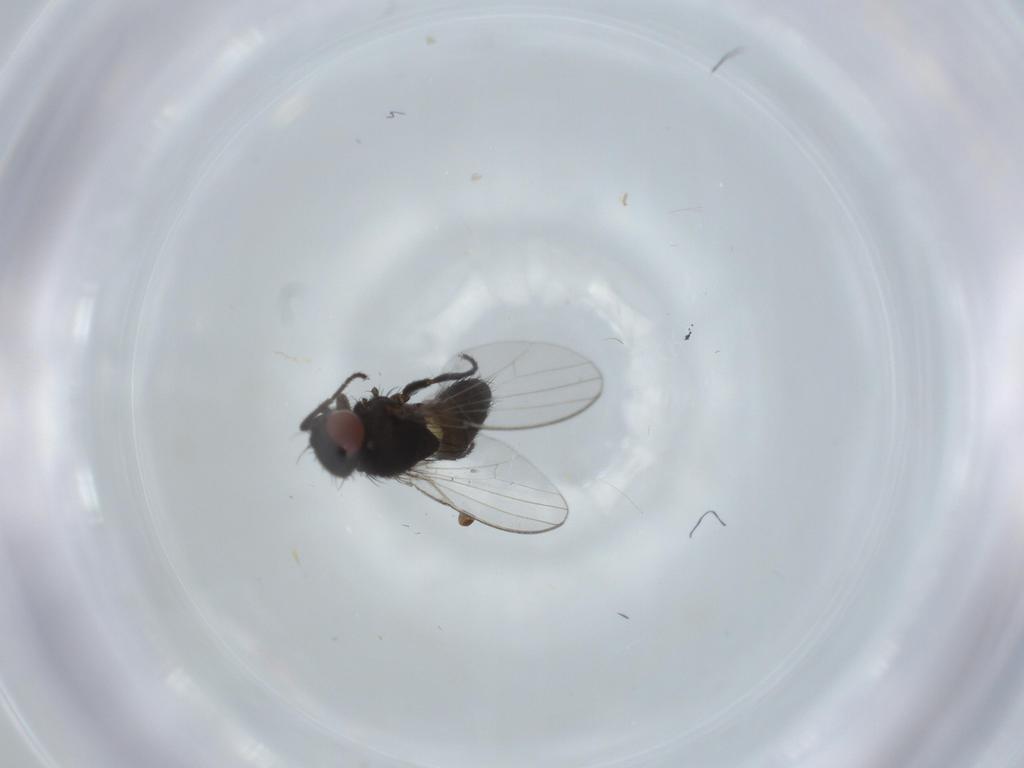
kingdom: Animalia
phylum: Arthropoda
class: Insecta
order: Diptera
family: Milichiidae
